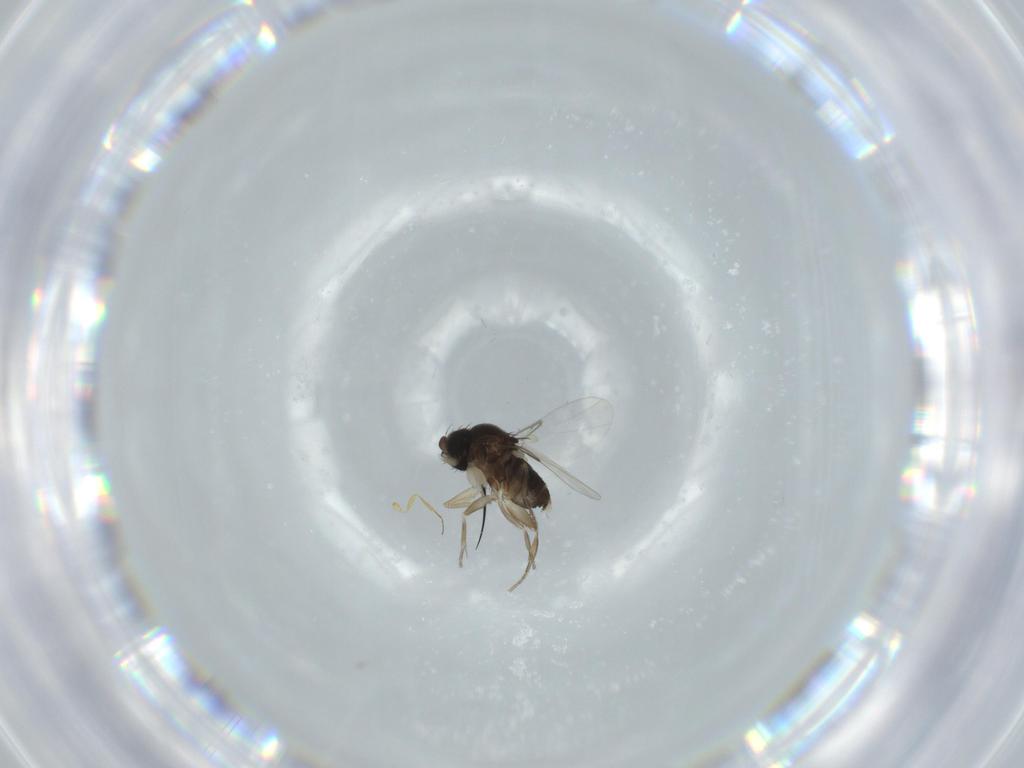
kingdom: Animalia
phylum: Arthropoda
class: Insecta
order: Diptera
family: Phoridae
